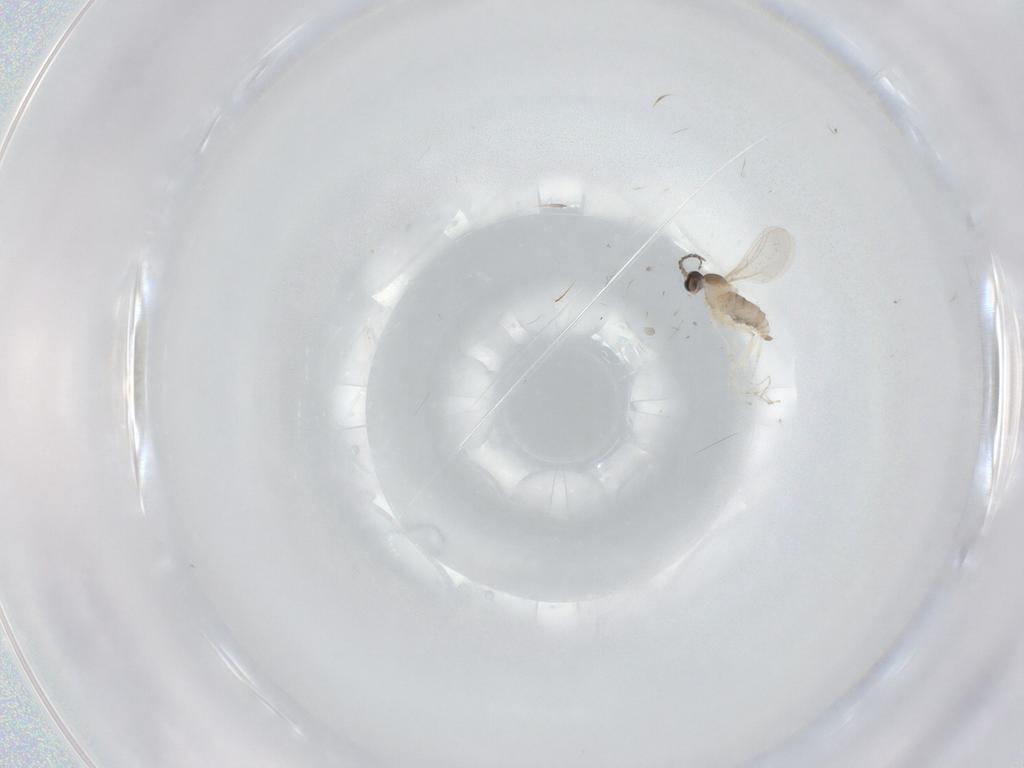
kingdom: Animalia
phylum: Arthropoda
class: Insecta
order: Diptera
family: Cecidomyiidae
